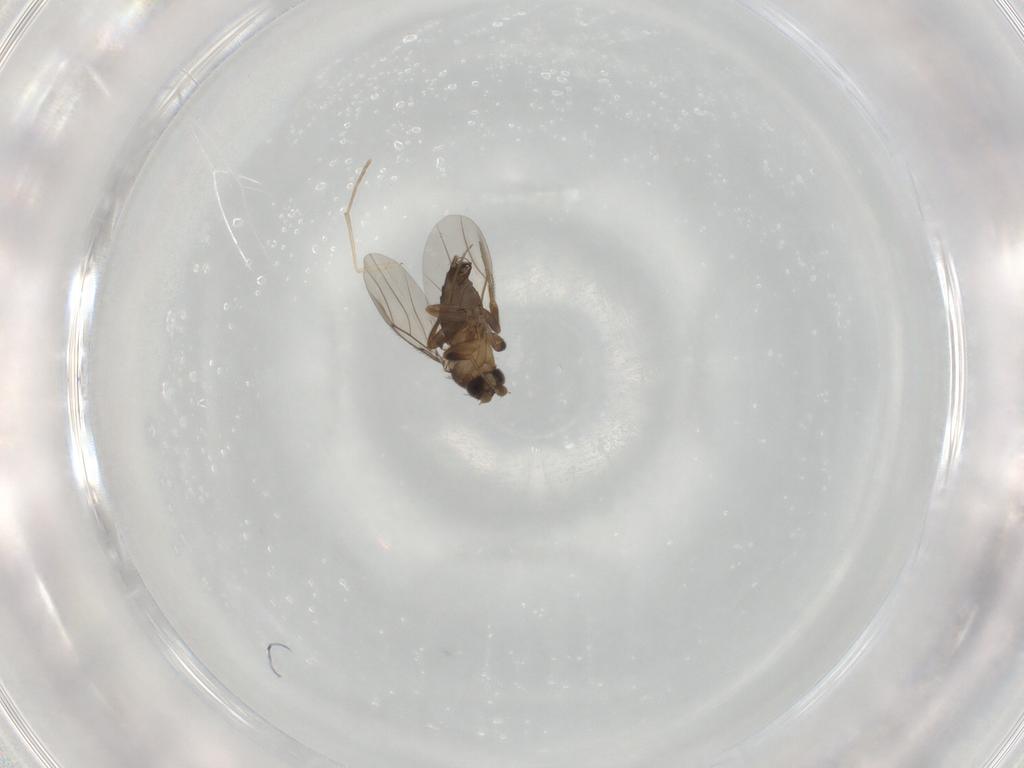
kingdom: Animalia
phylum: Arthropoda
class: Insecta
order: Diptera
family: Phoridae
